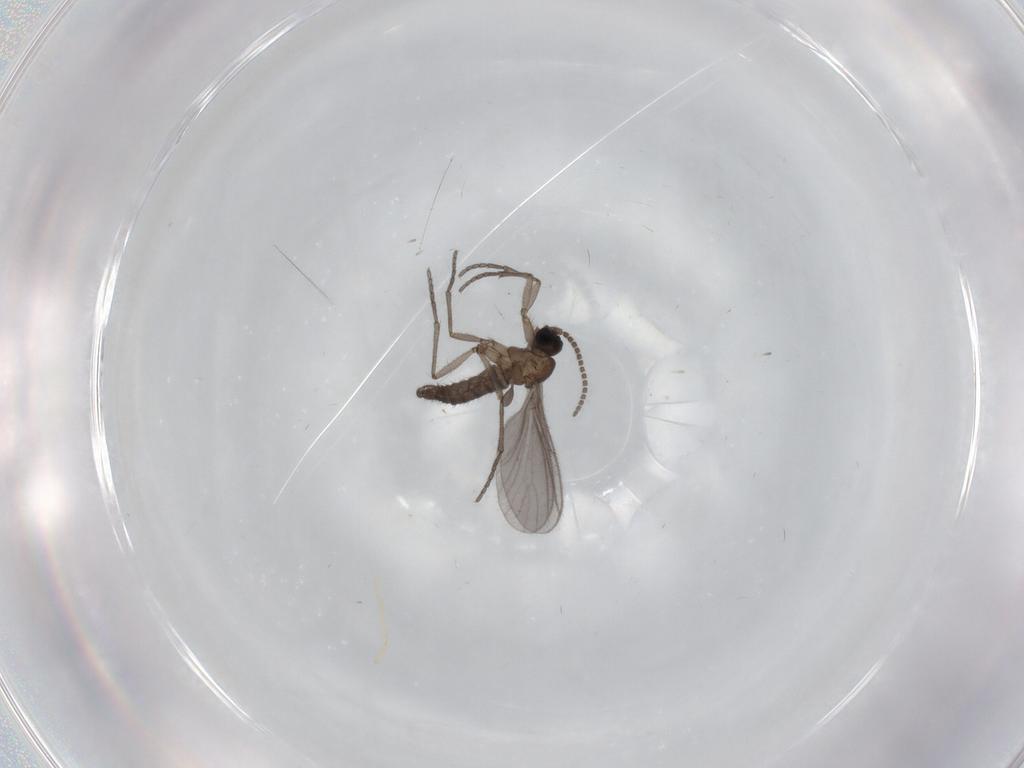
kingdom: Animalia
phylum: Arthropoda
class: Insecta
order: Diptera
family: Sciaridae
